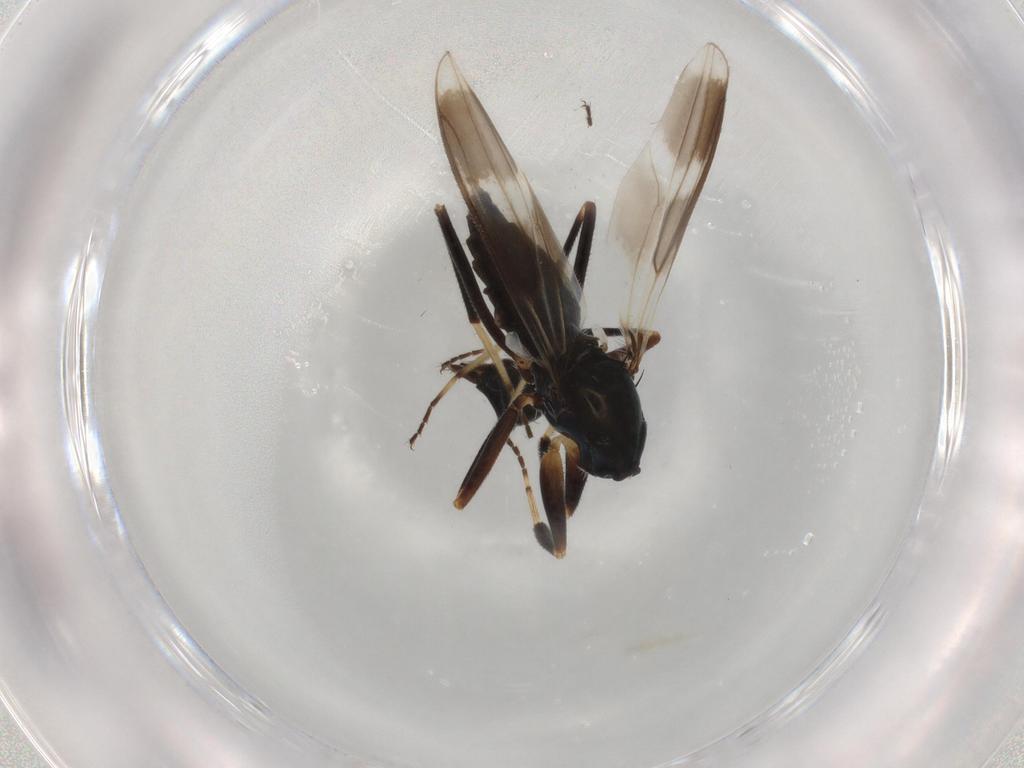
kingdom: Animalia
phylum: Arthropoda
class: Insecta
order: Diptera
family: Hybotidae
